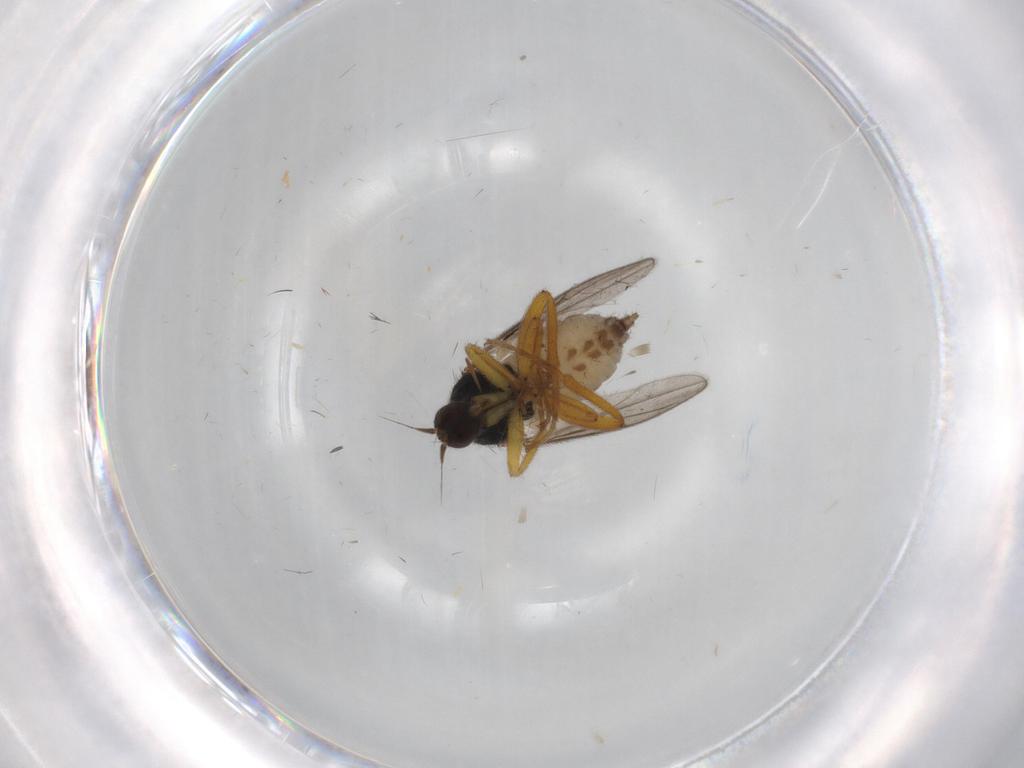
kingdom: Animalia
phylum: Arthropoda
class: Insecta
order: Diptera
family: Hybotidae
